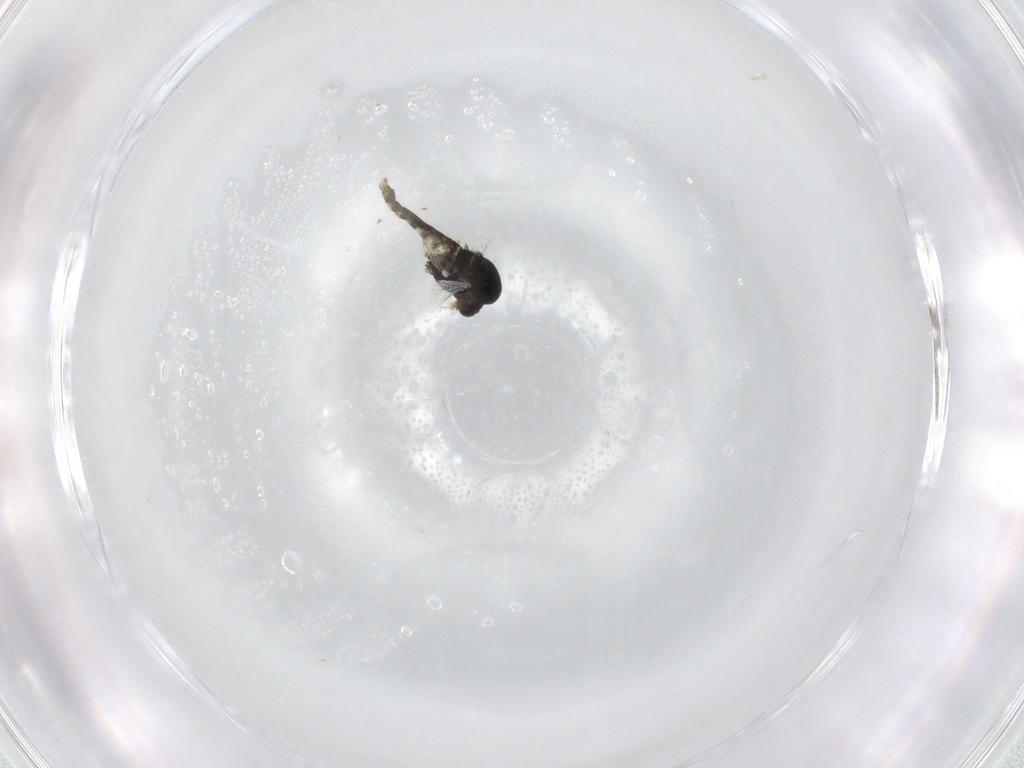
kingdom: Animalia
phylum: Arthropoda
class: Insecta
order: Diptera
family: Chironomidae
